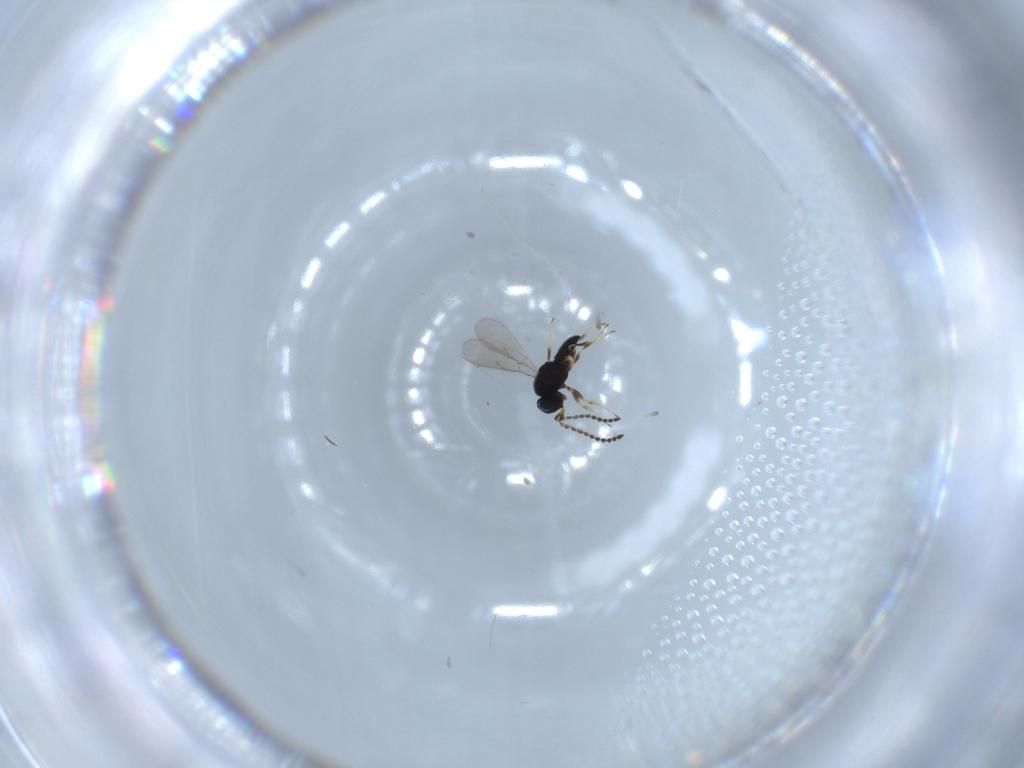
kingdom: Animalia
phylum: Arthropoda
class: Insecta
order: Hymenoptera
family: Scelionidae
